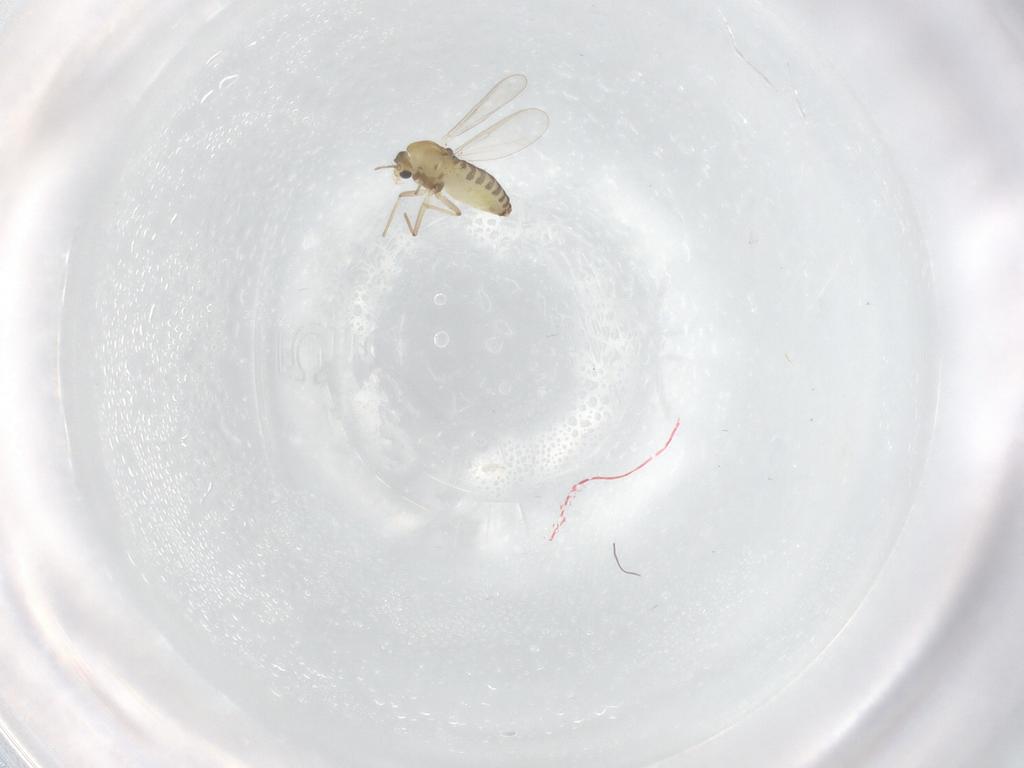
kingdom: Animalia
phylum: Arthropoda
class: Insecta
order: Diptera
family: Chironomidae
